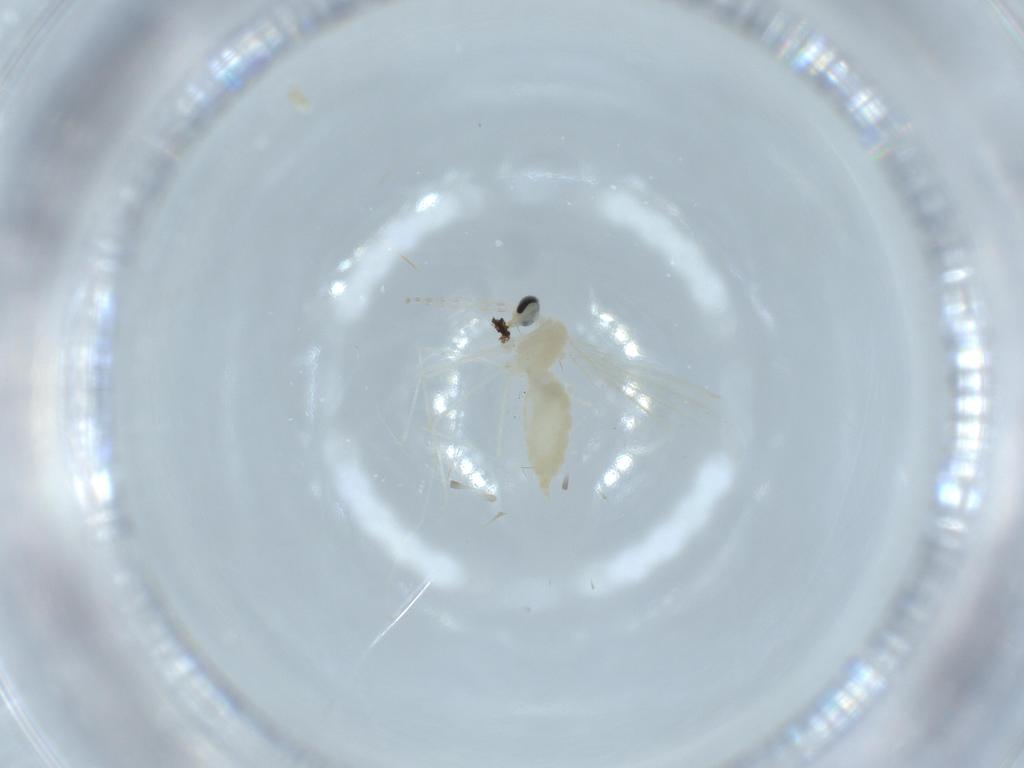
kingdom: Animalia
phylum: Arthropoda
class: Insecta
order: Diptera
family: Cecidomyiidae
